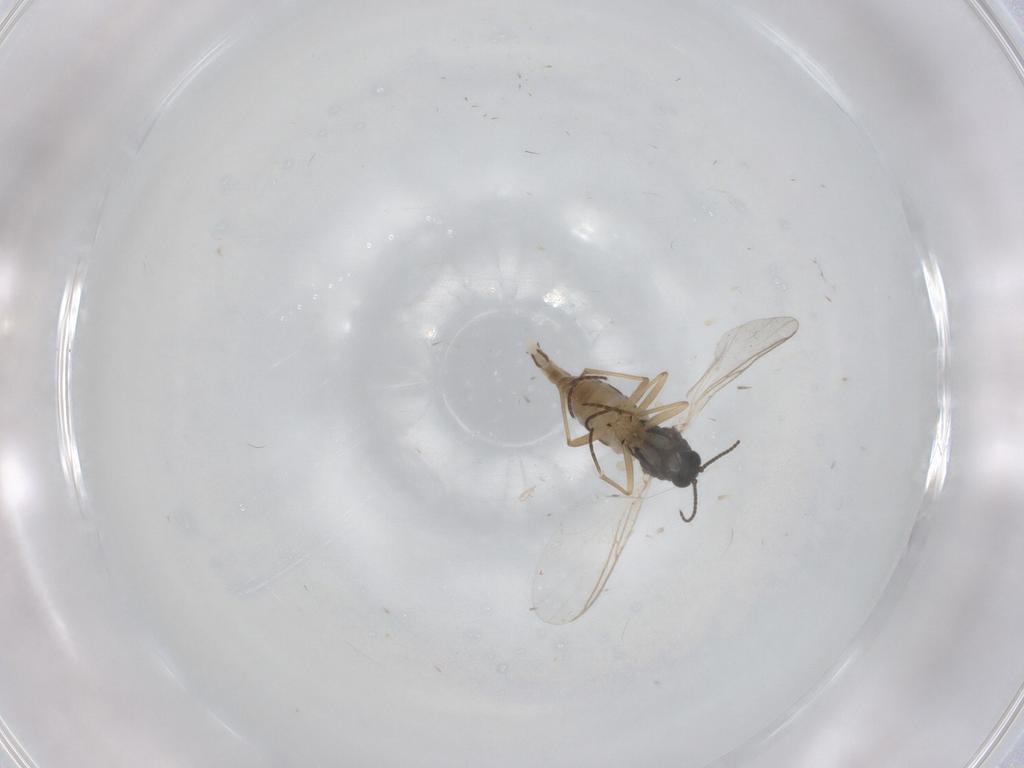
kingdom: Animalia
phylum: Arthropoda
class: Insecta
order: Diptera
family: Sciaridae
